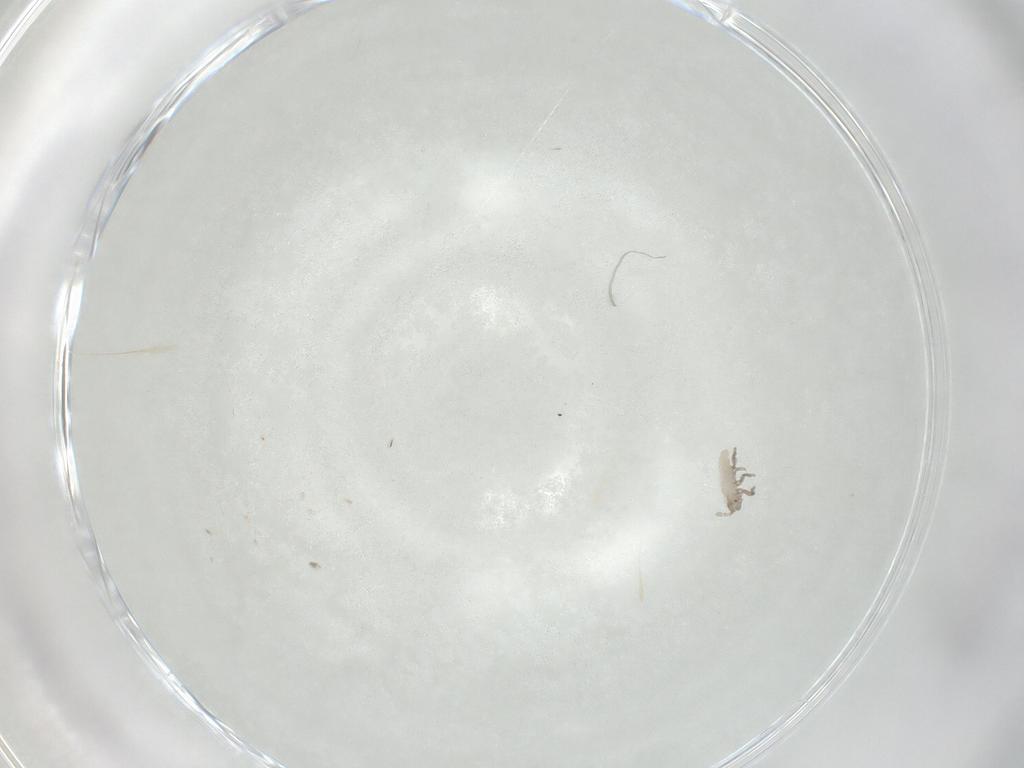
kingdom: Animalia
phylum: Arthropoda
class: Insecta
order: Hemiptera
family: Aphididae
